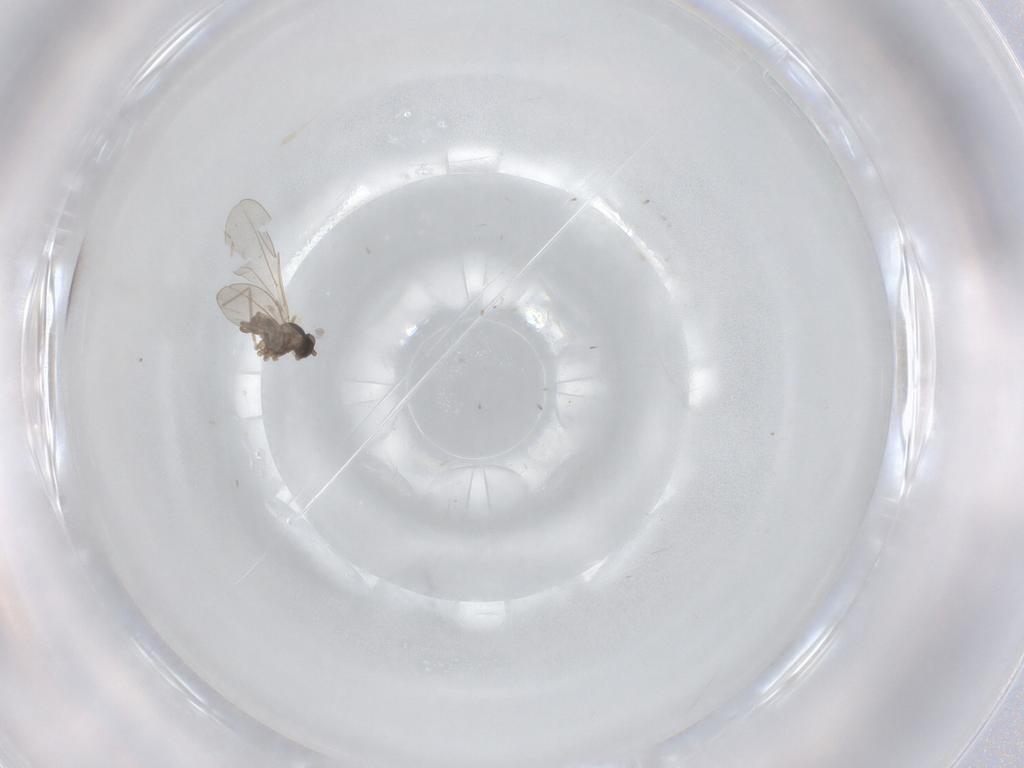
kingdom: Animalia
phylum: Arthropoda
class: Insecta
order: Diptera
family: Cecidomyiidae
